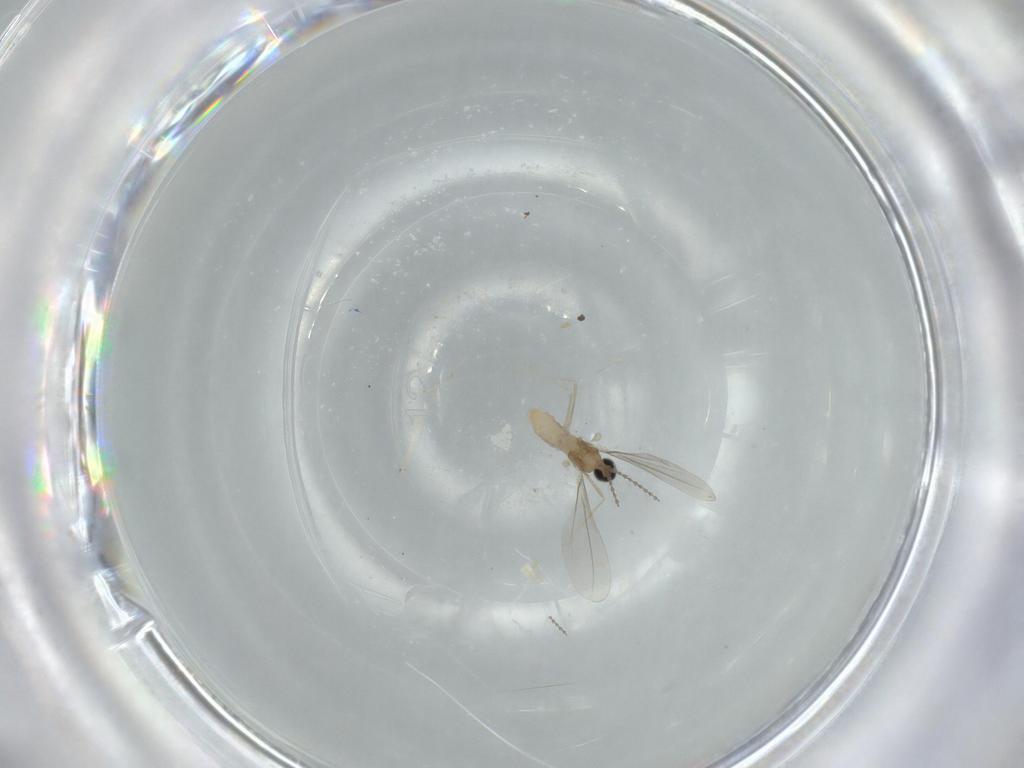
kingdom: Animalia
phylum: Arthropoda
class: Insecta
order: Diptera
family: Cecidomyiidae
